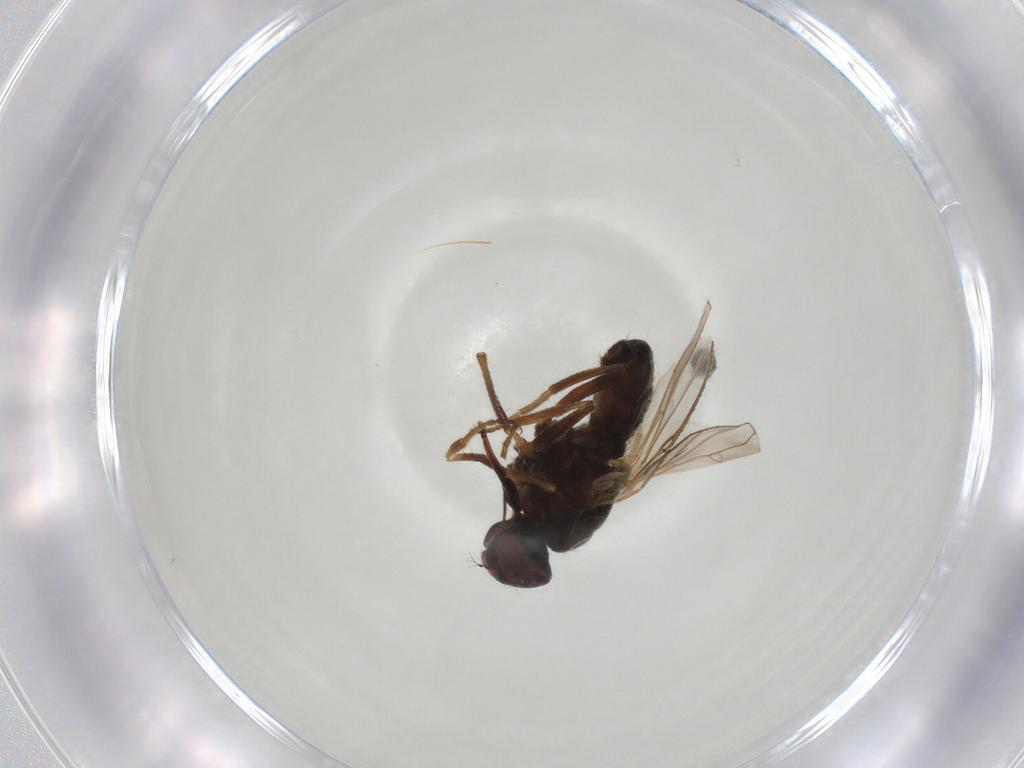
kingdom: Animalia
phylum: Arthropoda
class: Insecta
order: Diptera
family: Muscidae
